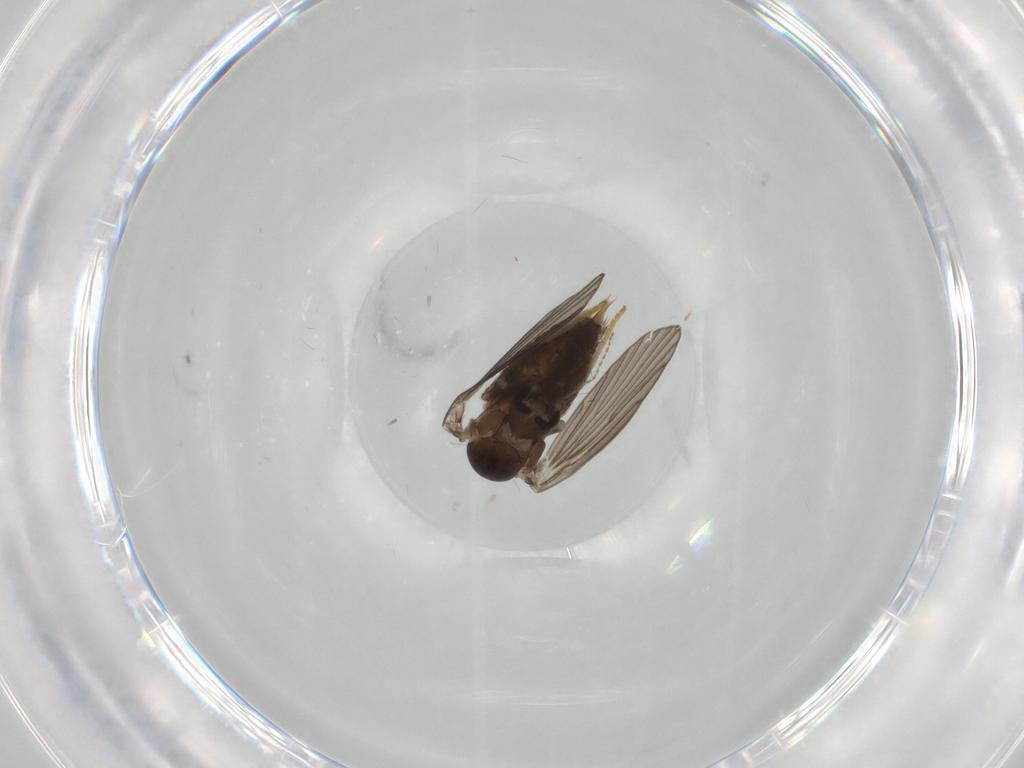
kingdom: Animalia
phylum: Arthropoda
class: Insecta
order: Diptera
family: Psychodidae
